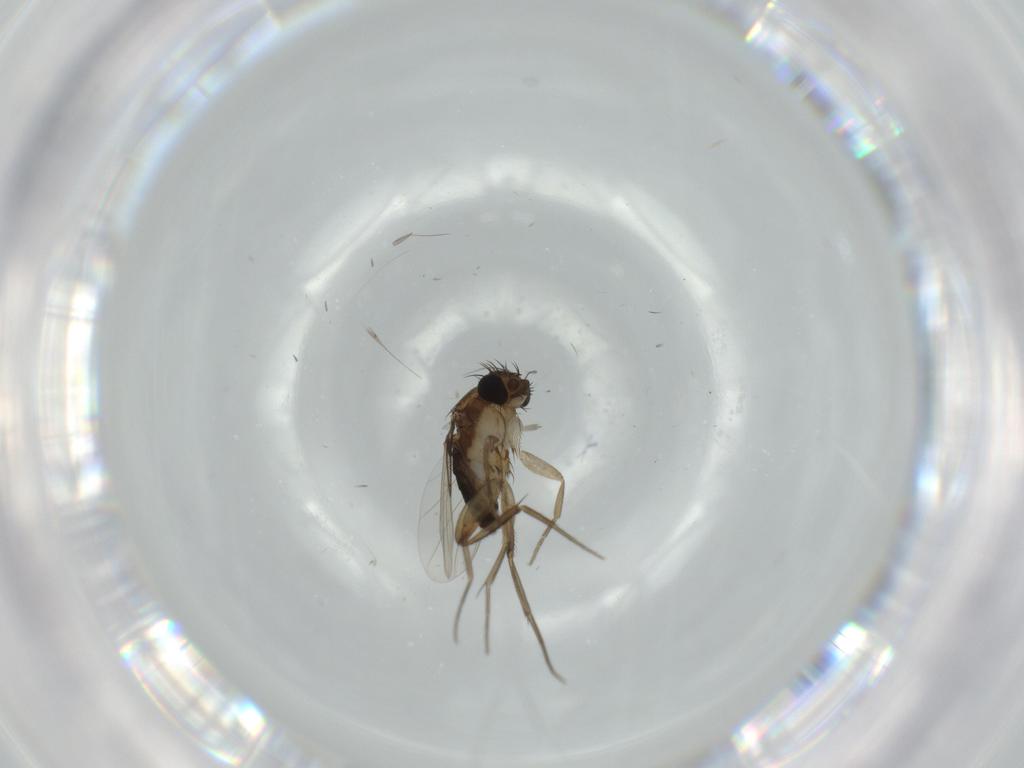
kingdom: Animalia
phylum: Arthropoda
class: Insecta
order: Diptera
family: Phoridae
